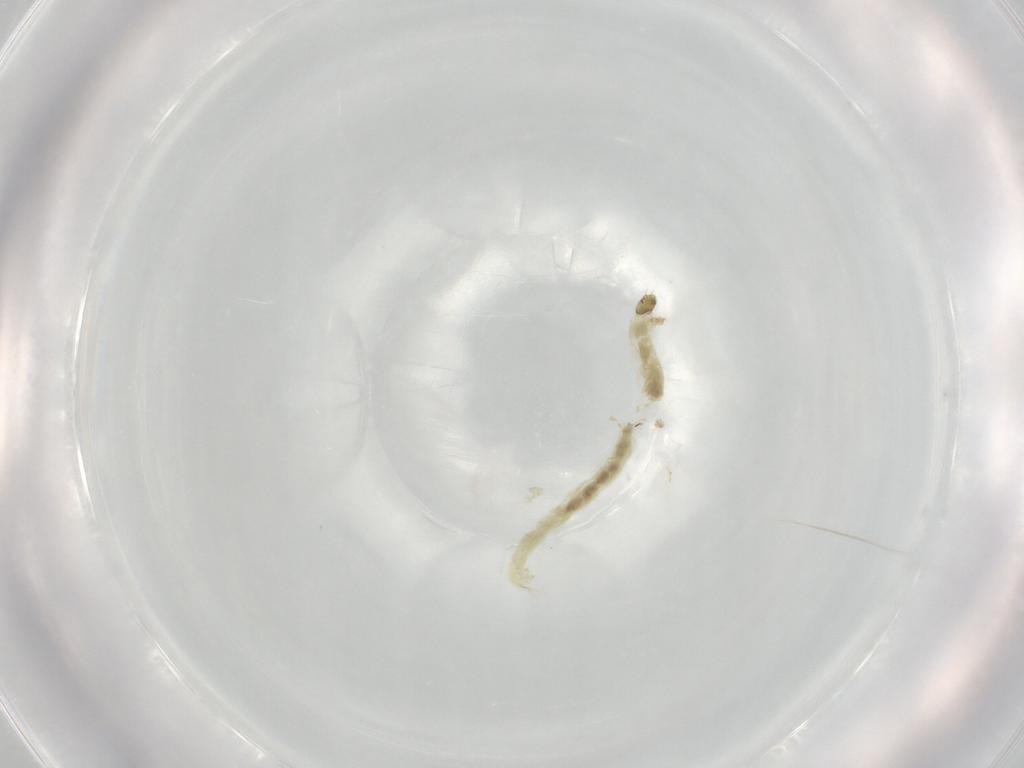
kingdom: Animalia
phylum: Arthropoda
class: Insecta
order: Diptera
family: Chironomidae
